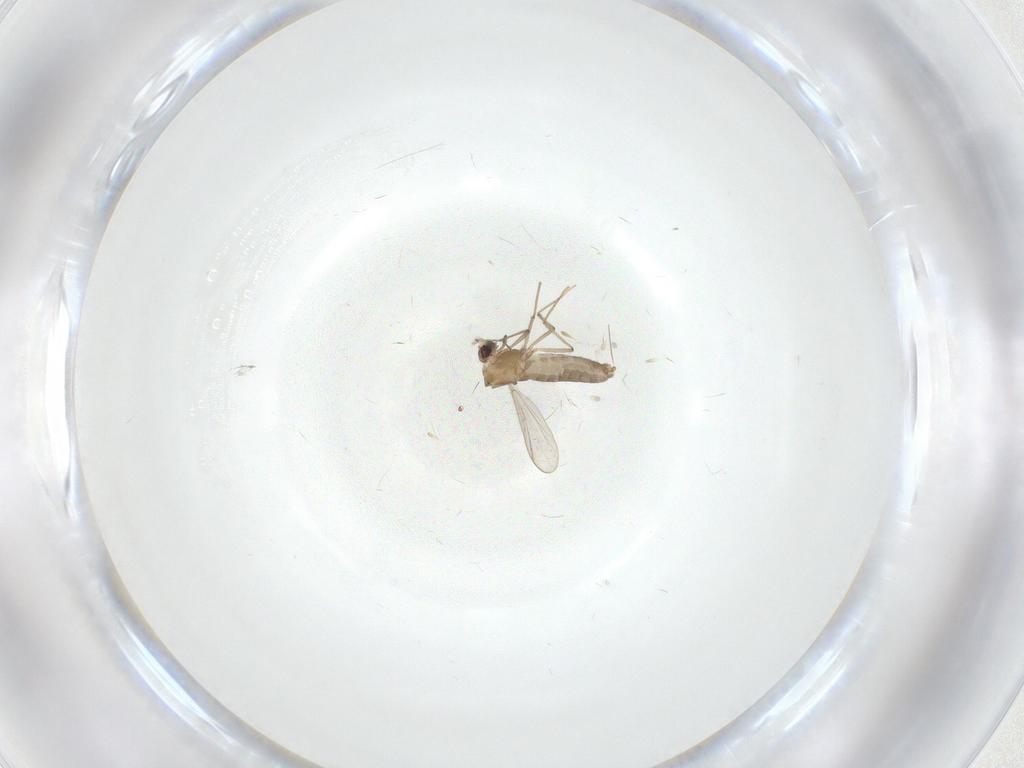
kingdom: Animalia
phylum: Arthropoda
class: Insecta
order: Diptera
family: Chironomidae
